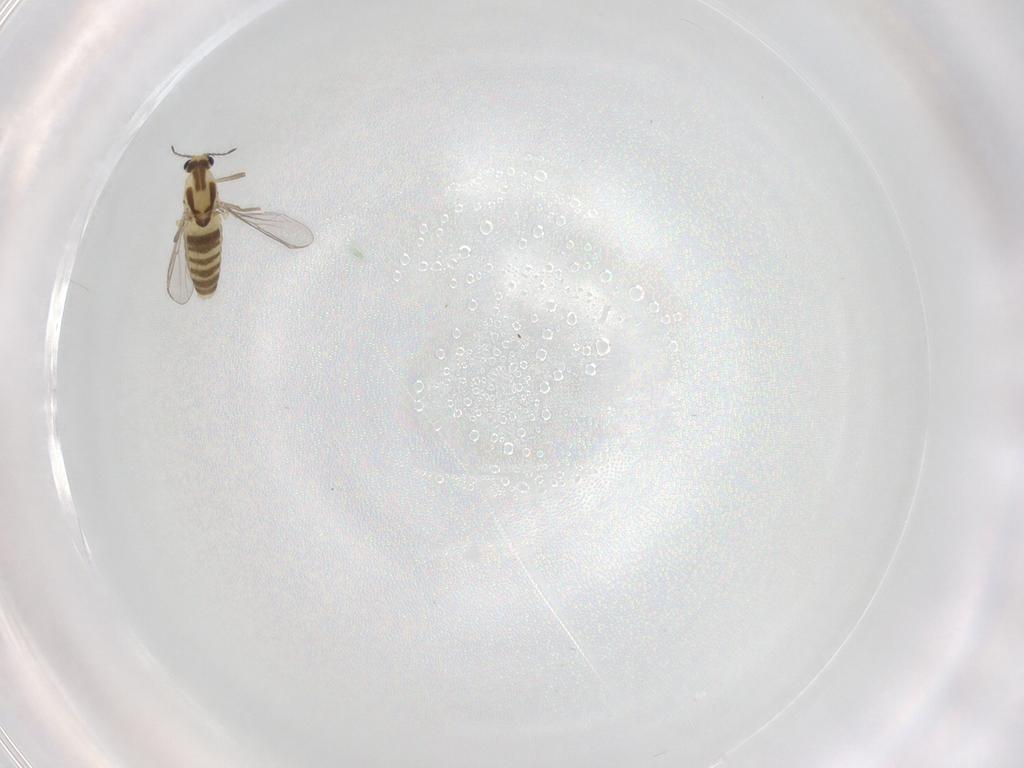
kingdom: Animalia
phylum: Arthropoda
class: Insecta
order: Diptera
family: Chironomidae
